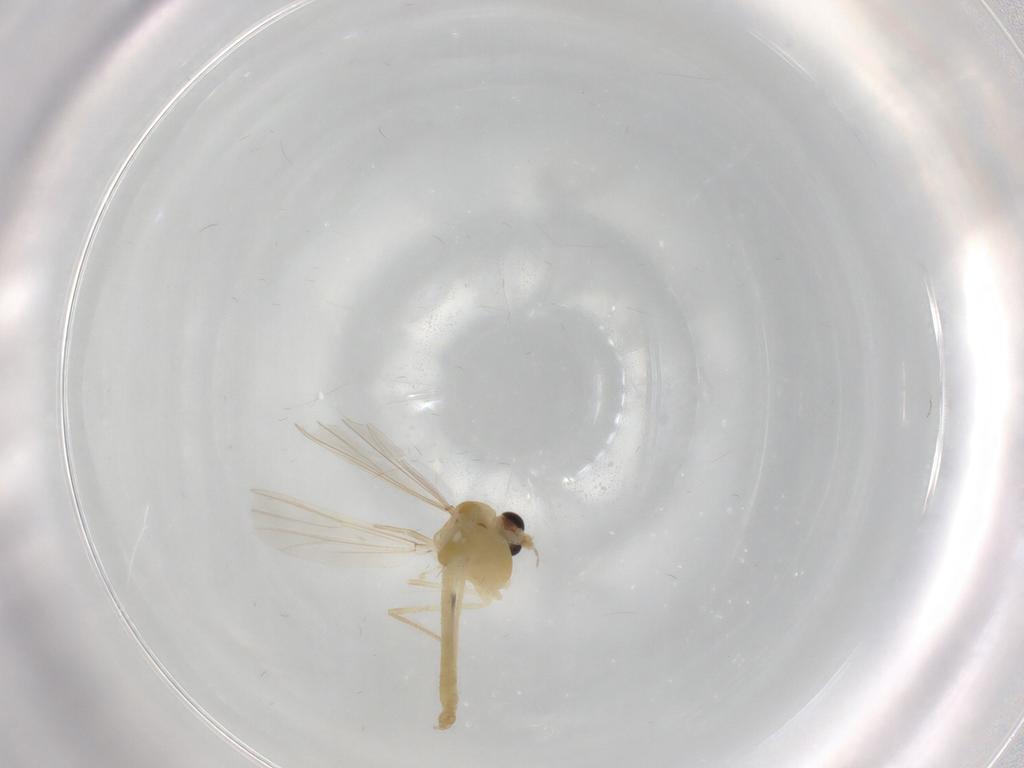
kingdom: Animalia
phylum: Arthropoda
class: Insecta
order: Diptera
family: Chironomidae
